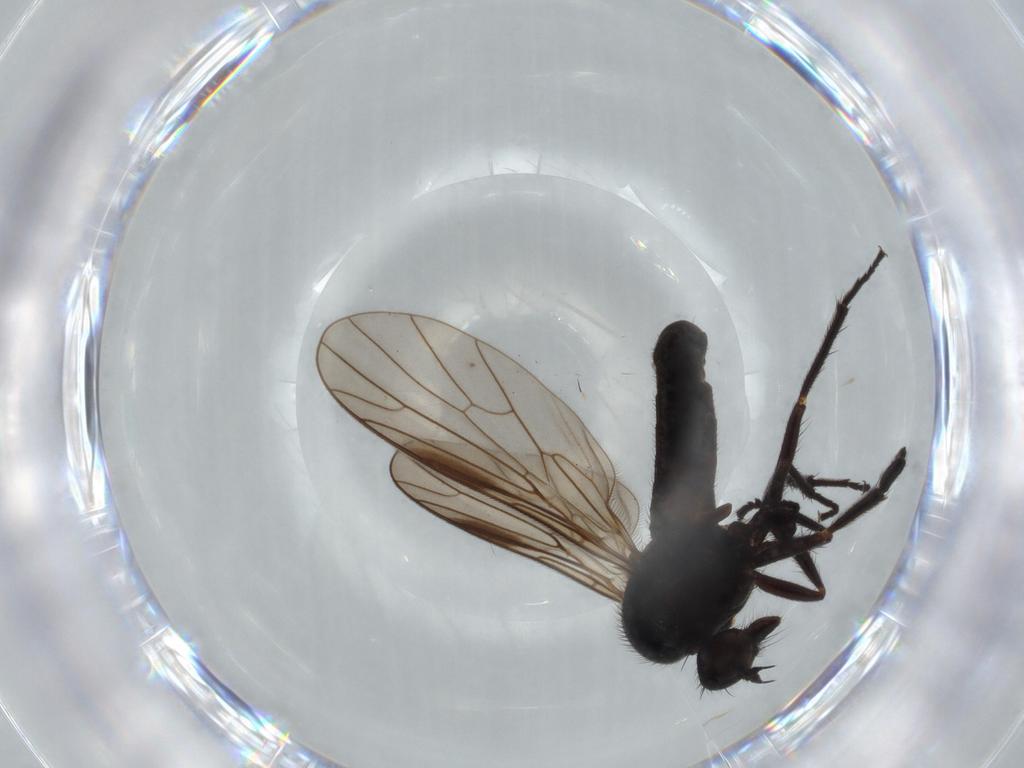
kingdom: Animalia
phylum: Arthropoda
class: Insecta
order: Diptera
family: Empididae
